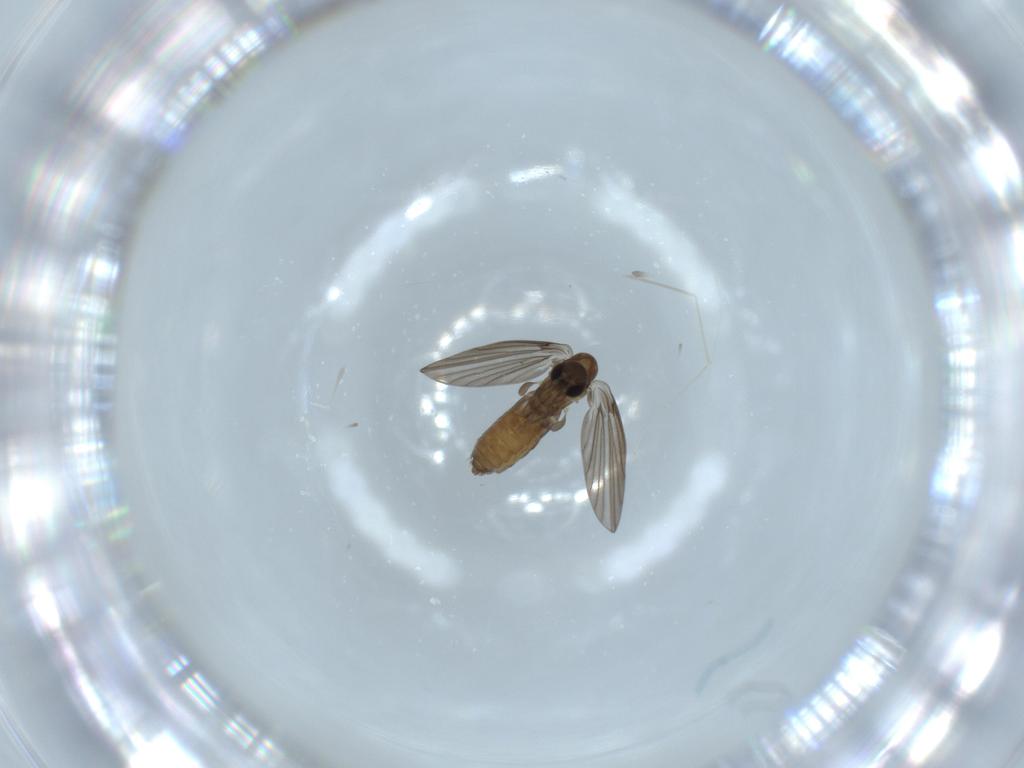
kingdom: Animalia
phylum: Arthropoda
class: Insecta
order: Diptera
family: Psychodidae
